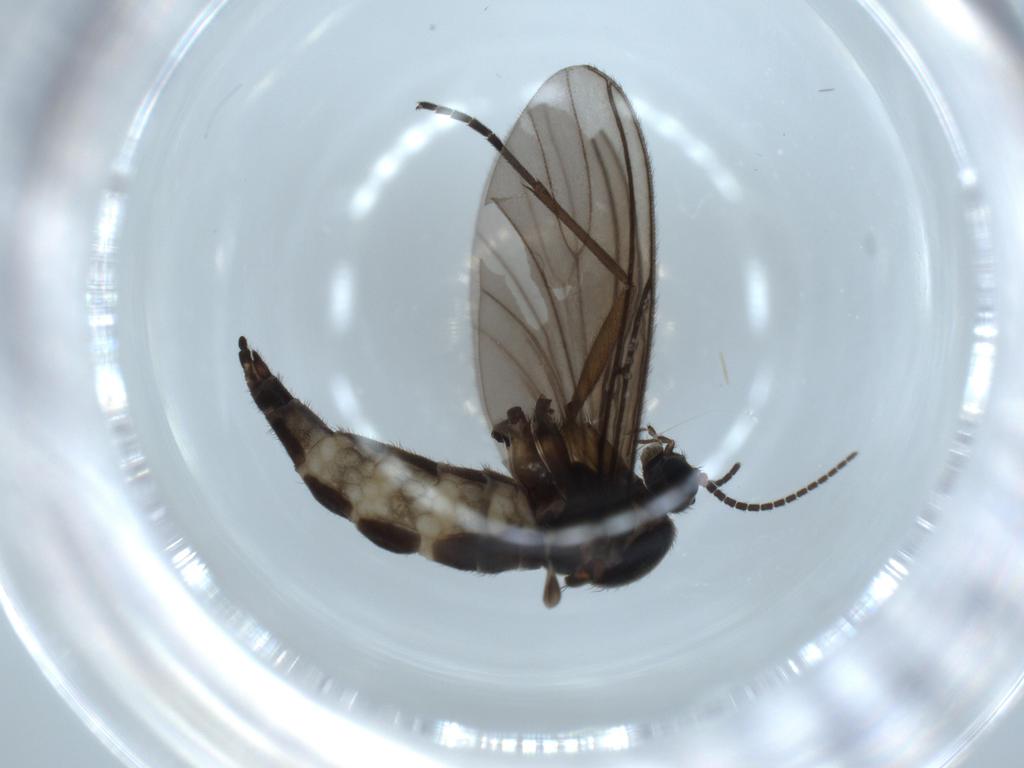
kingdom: Animalia
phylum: Arthropoda
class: Insecta
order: Diptera
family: Sciaridae
